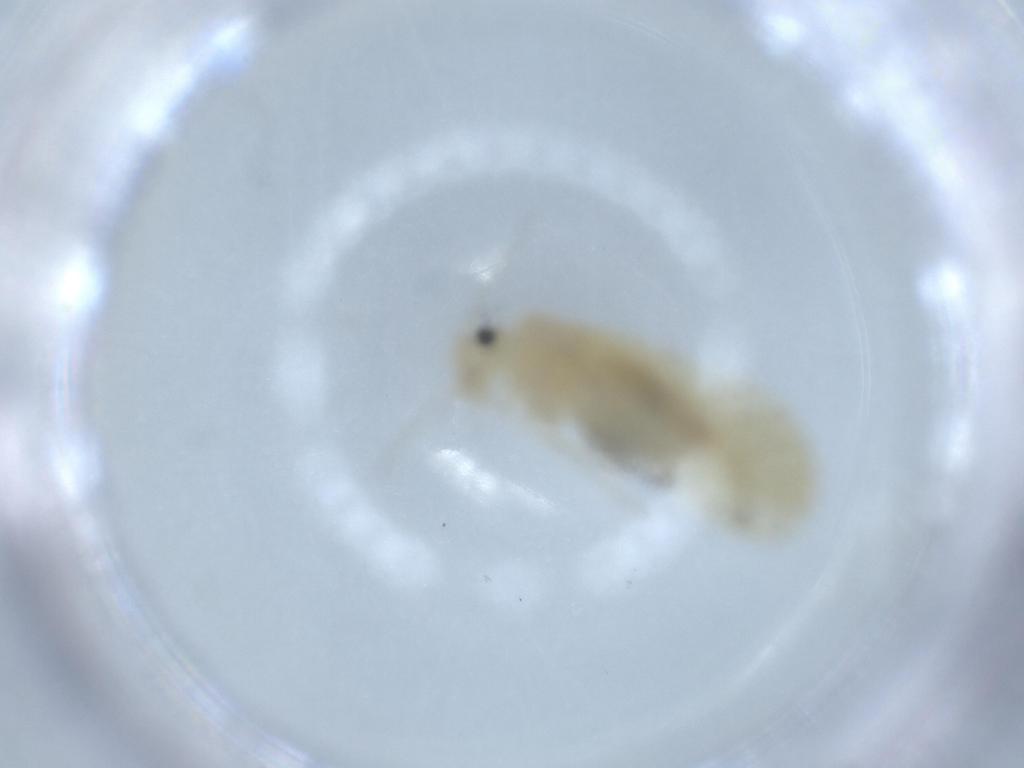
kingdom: Animalia
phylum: Arthropoda
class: Insecta
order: Psocodea
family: Caeciliusidae
